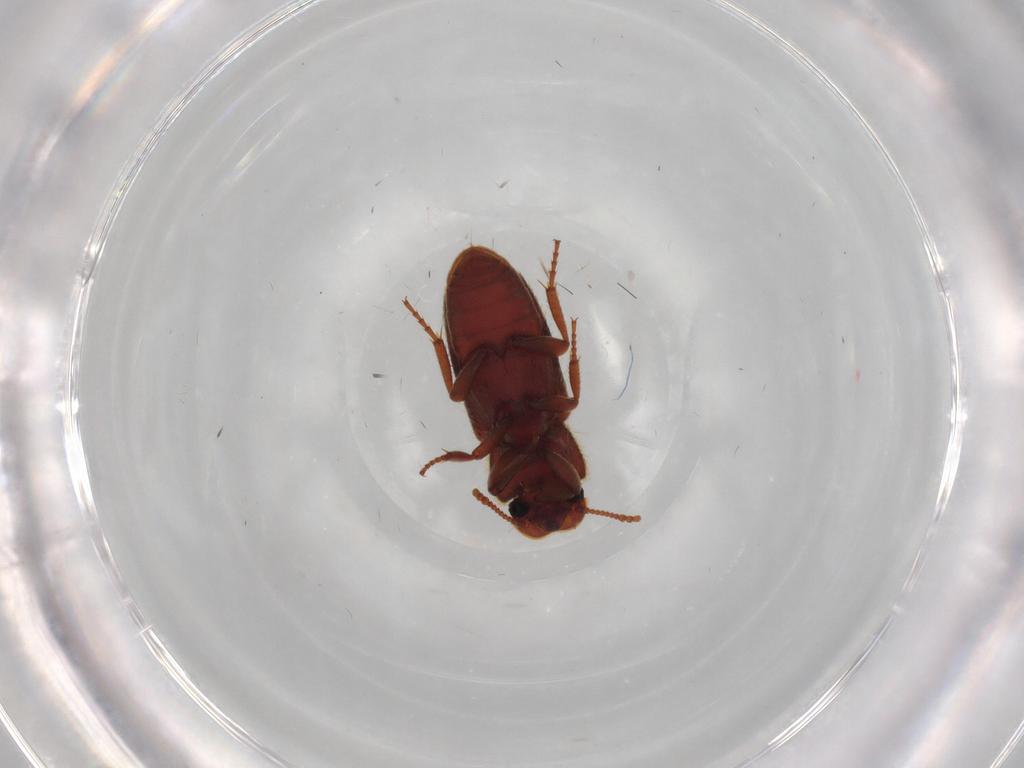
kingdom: Animalia
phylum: Arthropoda
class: Insecta
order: Coleoptera
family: Tenebrionidae
